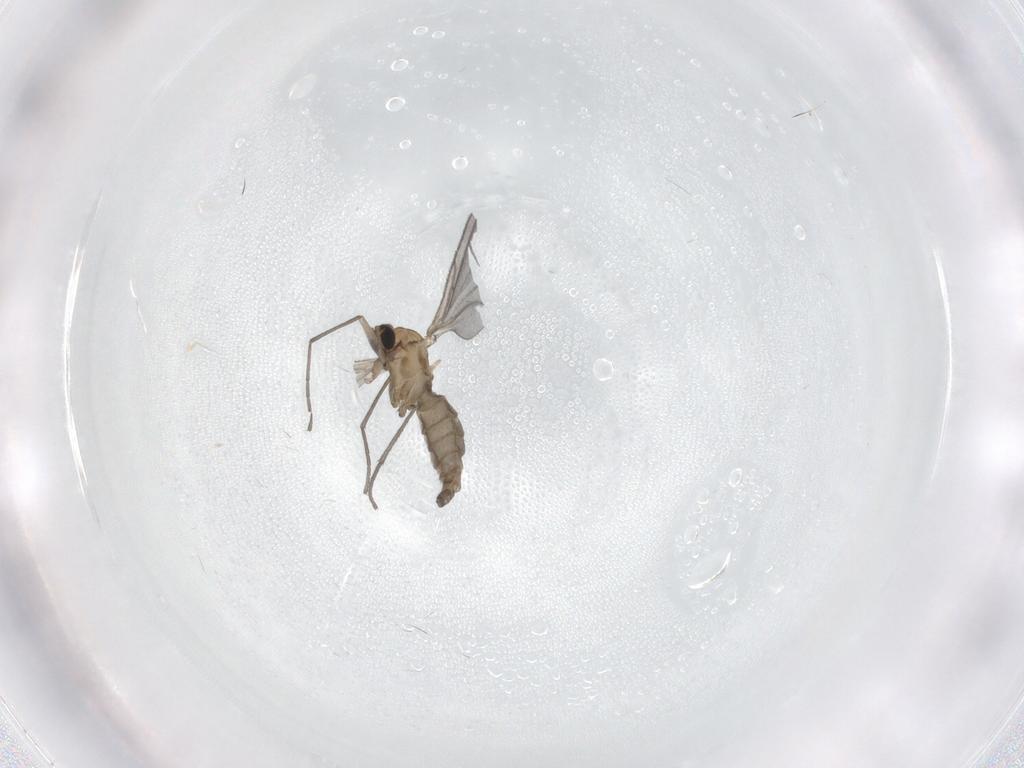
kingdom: Animalia
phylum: Arthropoda
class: Insecta
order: Diptera
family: Sciaridae
